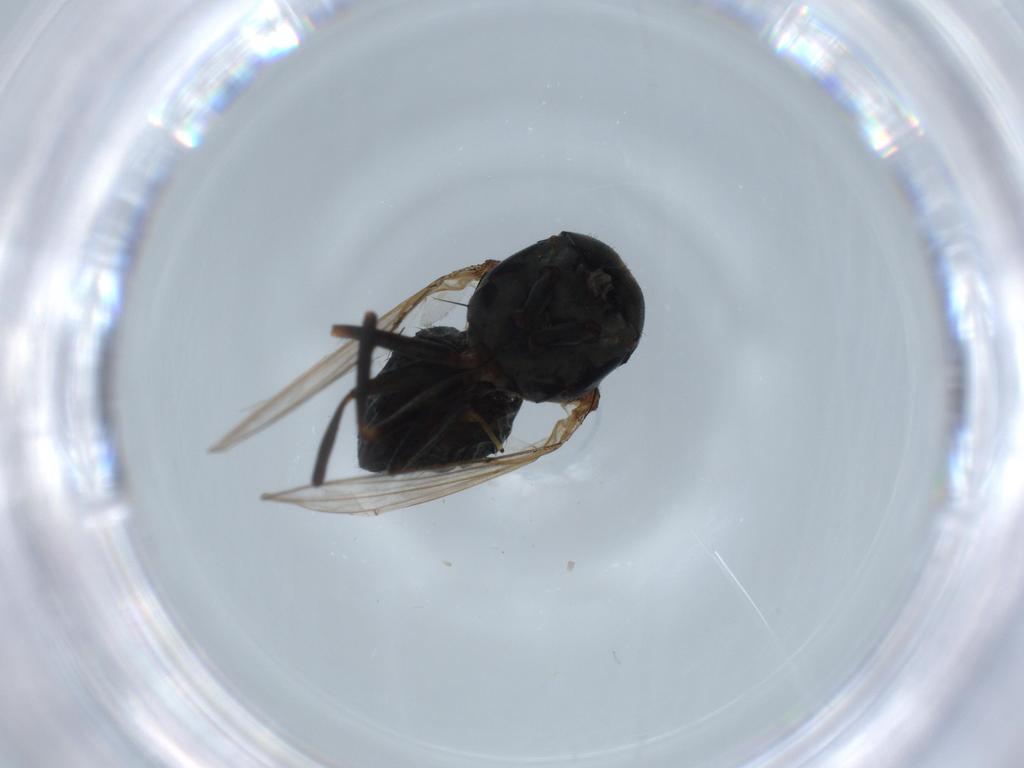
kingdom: Animalia
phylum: Arthropoda
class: Insecta
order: Diptera
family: Ephydridae
